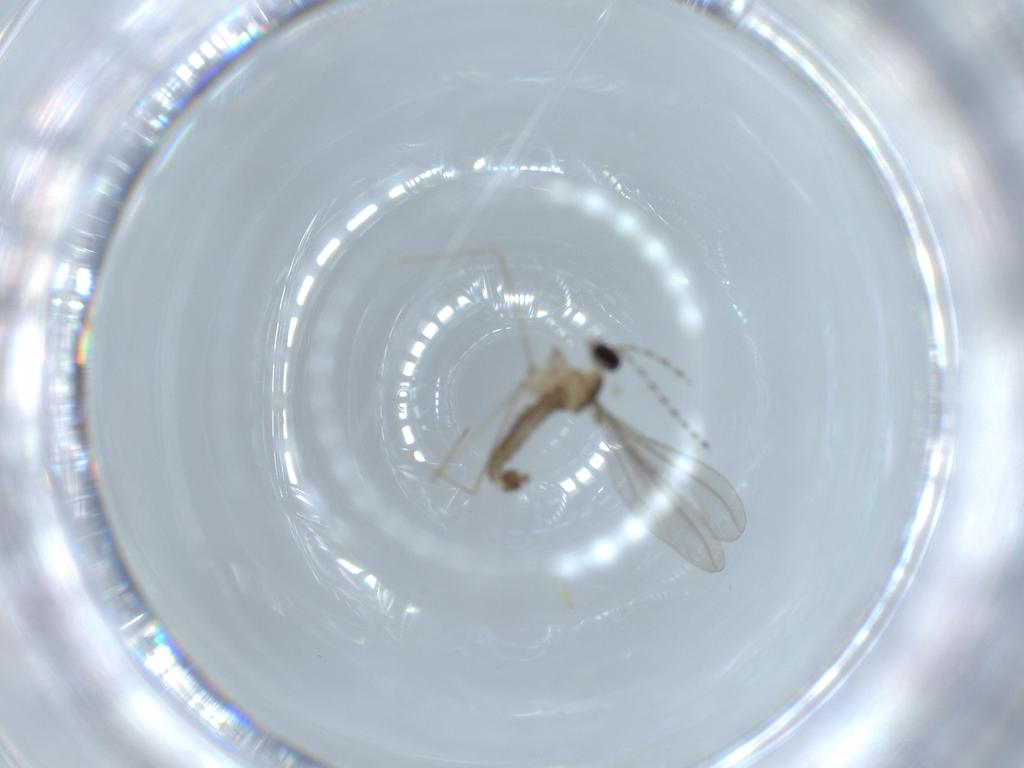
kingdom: Animalia
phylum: Arthropoda
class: Insecta
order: Diptera
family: Cecidomyiidae
